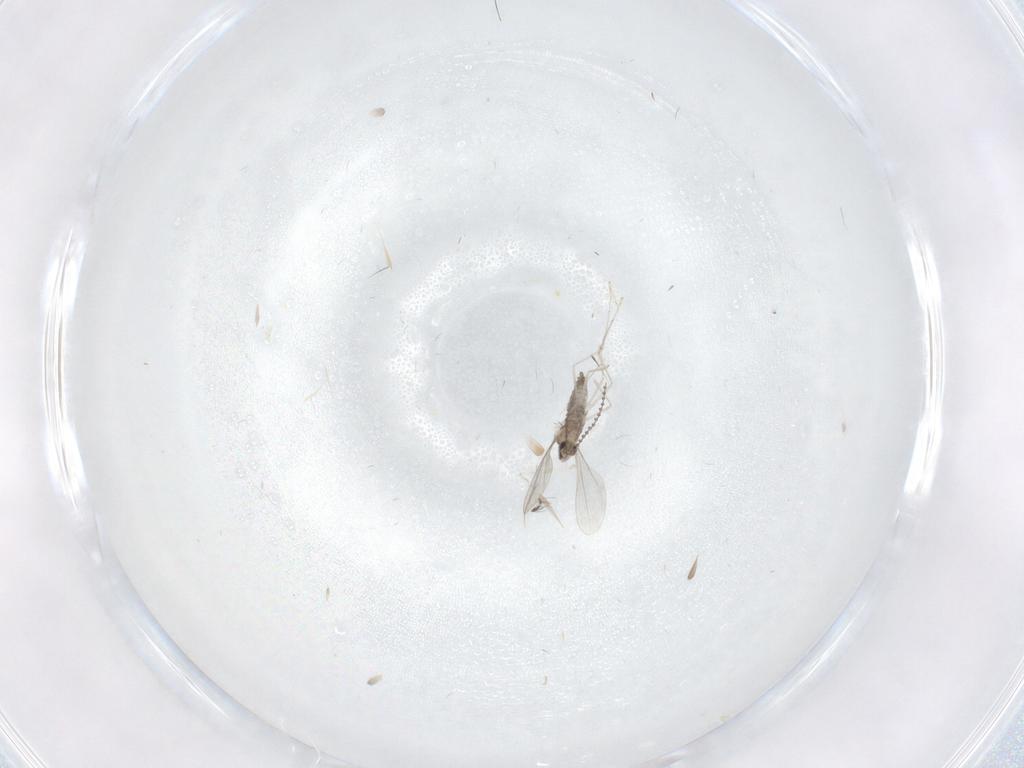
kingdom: Animalia
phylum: Arthropoda
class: Insecta
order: Diptera
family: Cecidomyiidae
